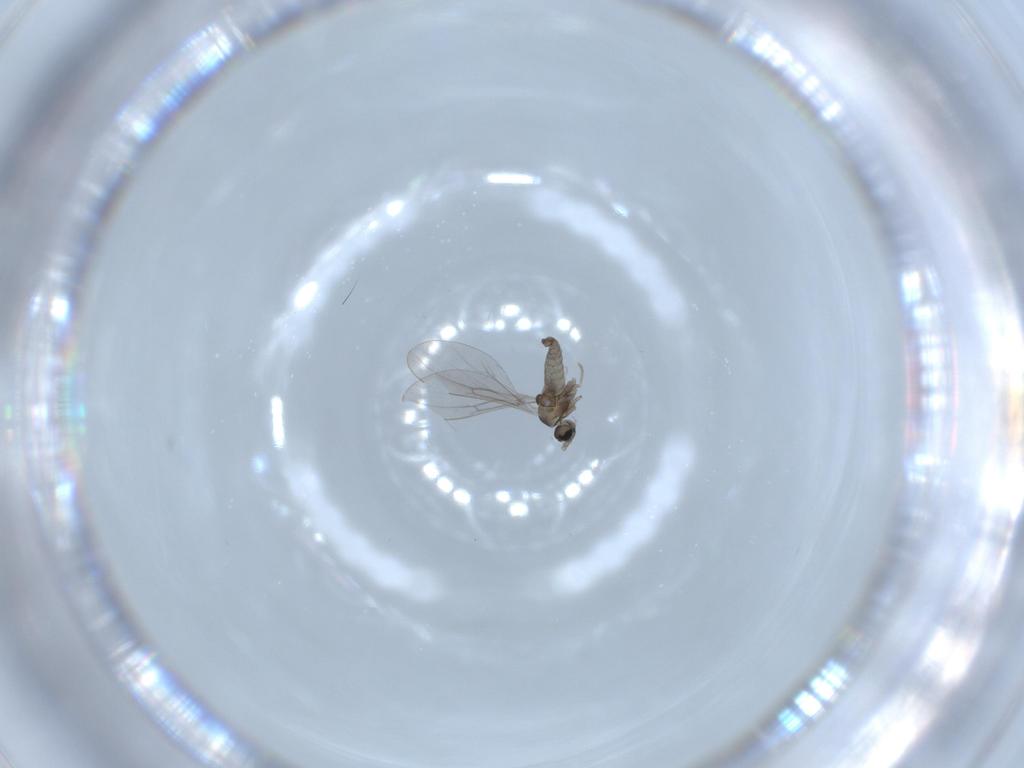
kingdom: Animalia
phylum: Arthropoda
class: Insecta
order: Diptera
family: Cecidomyiidae
